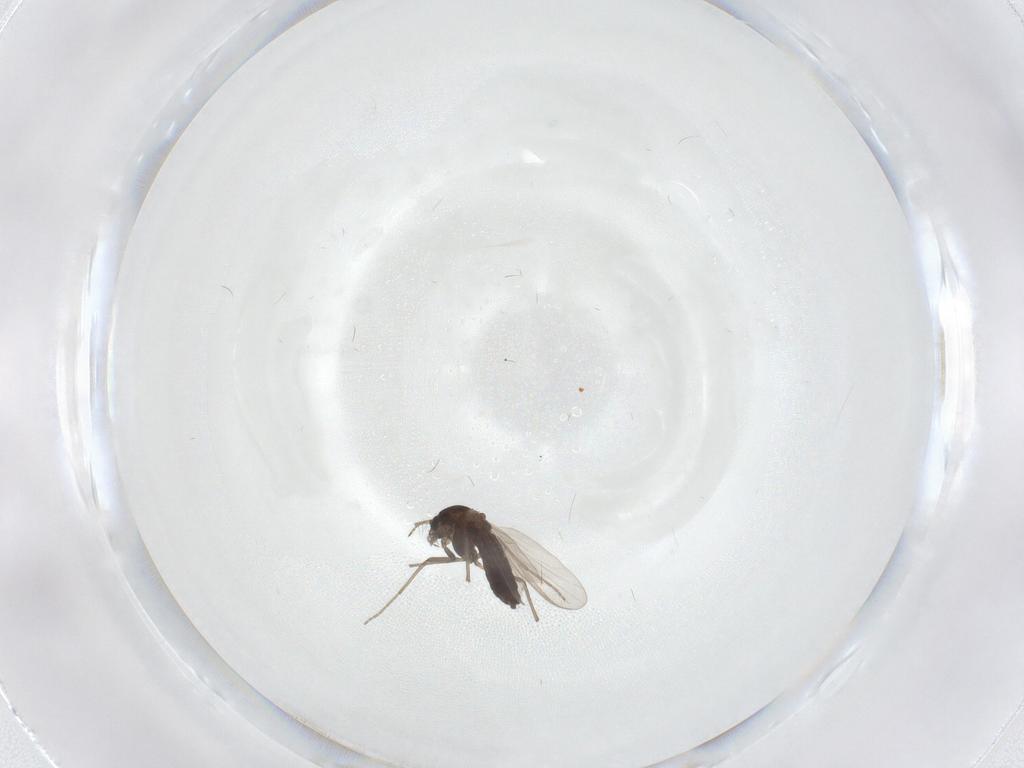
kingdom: Animalia
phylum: Arthropoda
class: Insecta
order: Diptera
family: Chironomidae
